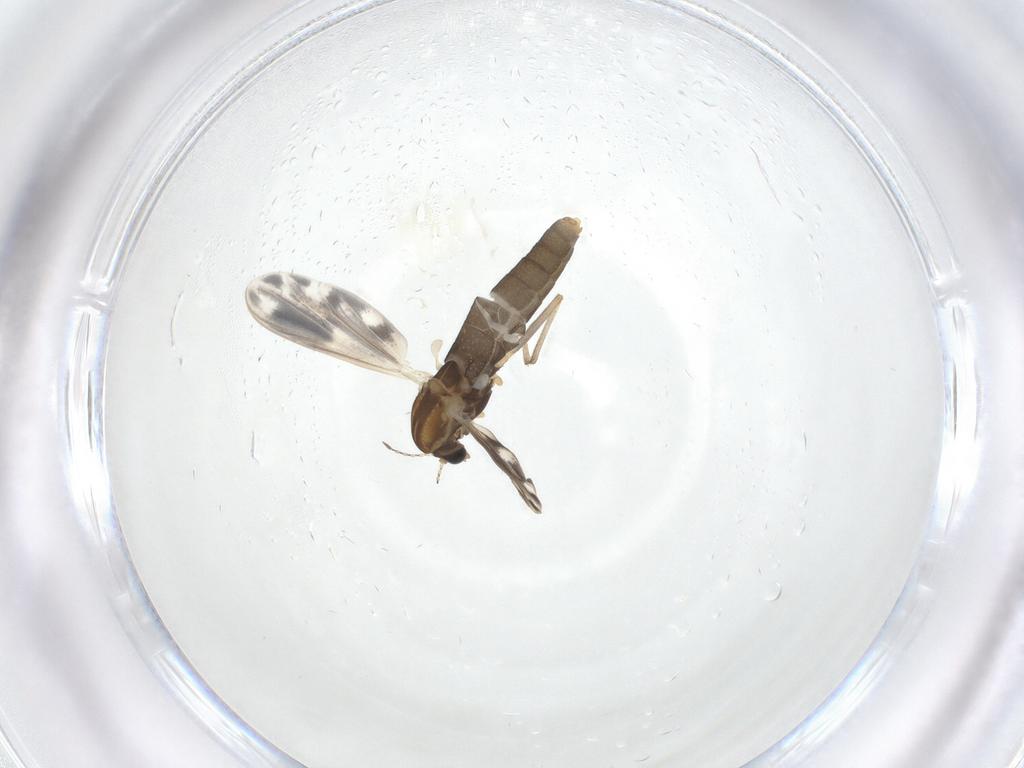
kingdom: Animalia
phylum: Arthropoda
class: Insecta
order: Diptera
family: Chironomidae
